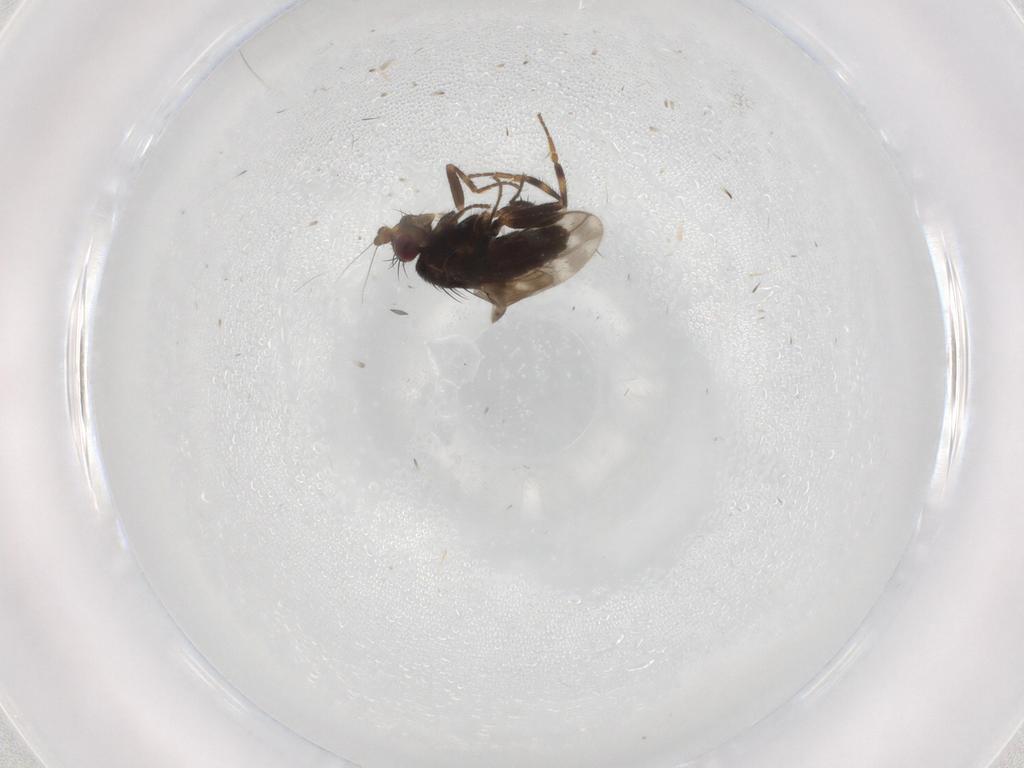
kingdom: Animalia
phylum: Arthropoda
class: Insecta
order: Diptera
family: Sphaeroceridae
